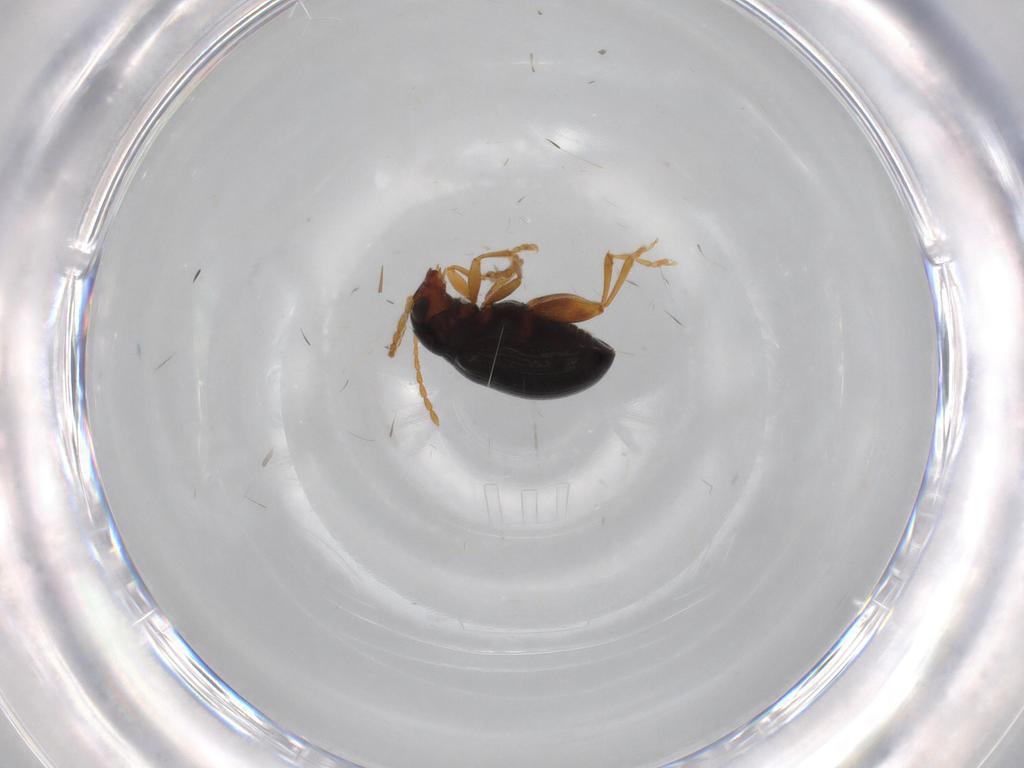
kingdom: Animalia
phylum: Arthropoda
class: Insecta
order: Coleoptera
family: Chrysomelidae
